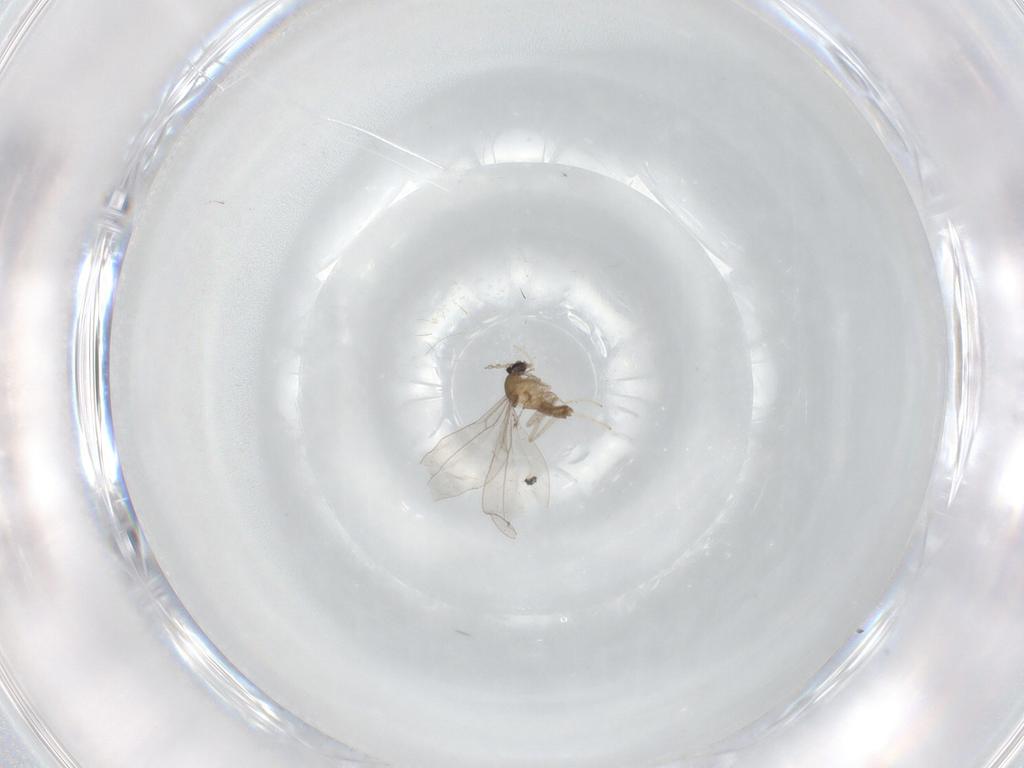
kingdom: Animalia
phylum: Arthropoda
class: Insecta
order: Diptera
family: Cecidomyiidae
